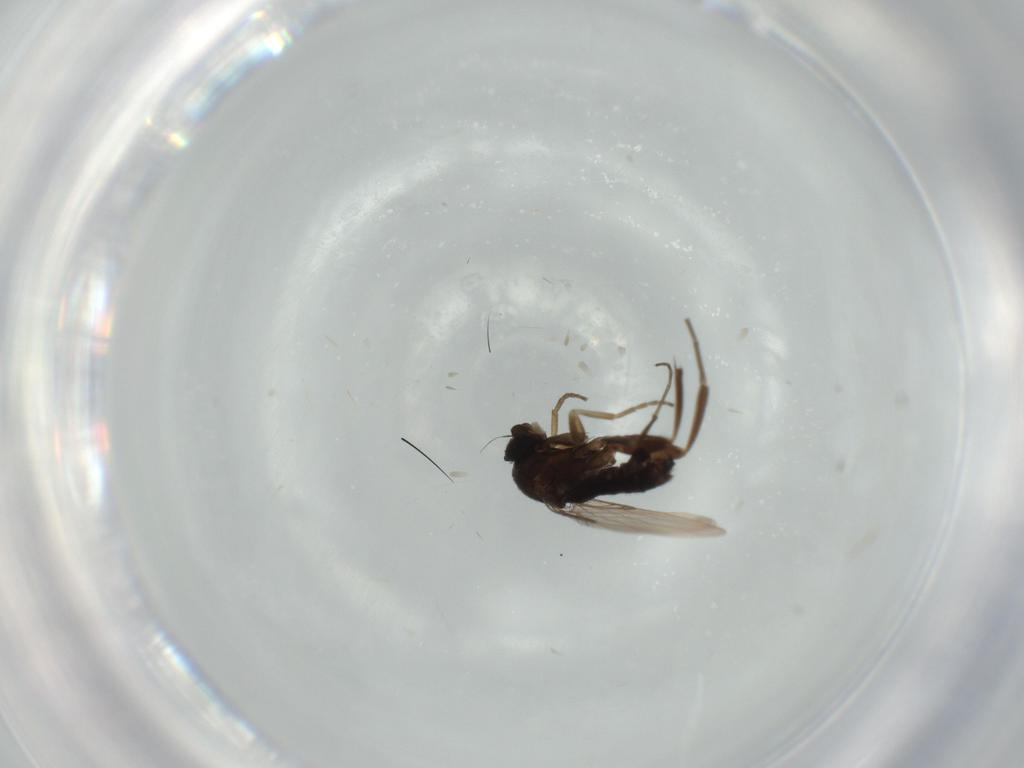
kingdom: Animalia
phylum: Arthropoda
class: Insecta
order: Diptera
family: Phoridae
